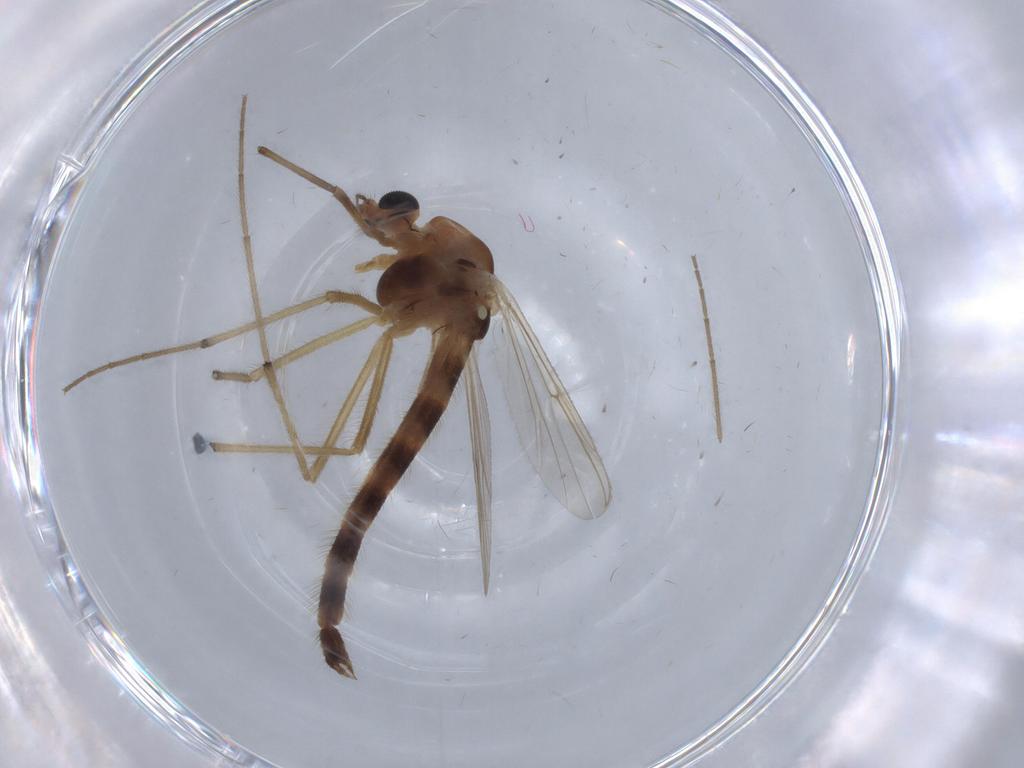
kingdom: Animalia
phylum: Arthropoda
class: Insecta
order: Diptera
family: Chironomidae
